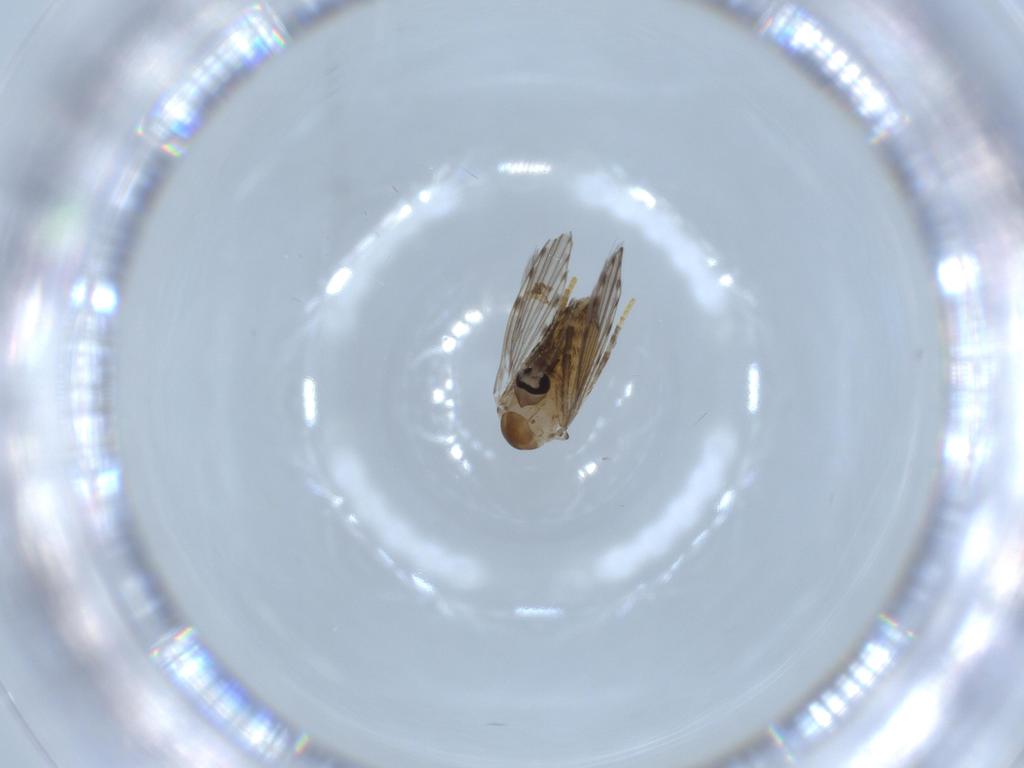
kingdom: Animalia
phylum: Arthropoda
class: Insecta
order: Diptera
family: Psychodidae
